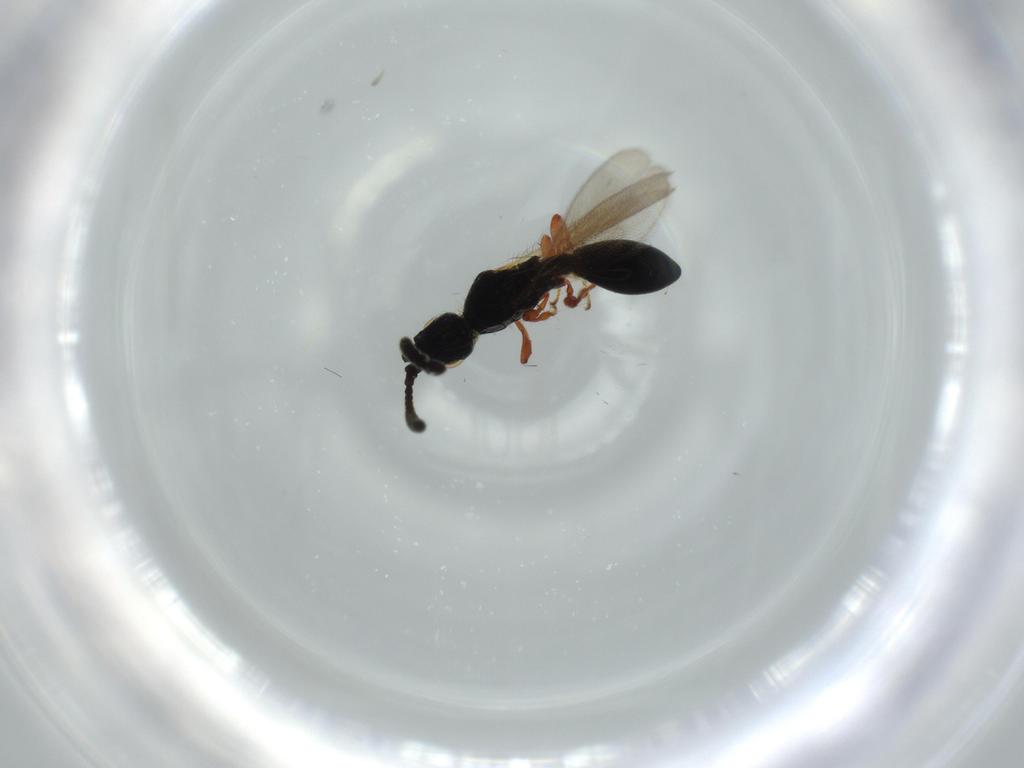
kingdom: Animalia
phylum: Arthropoda
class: Insecta
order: Hymenoptera
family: Diapriidae
